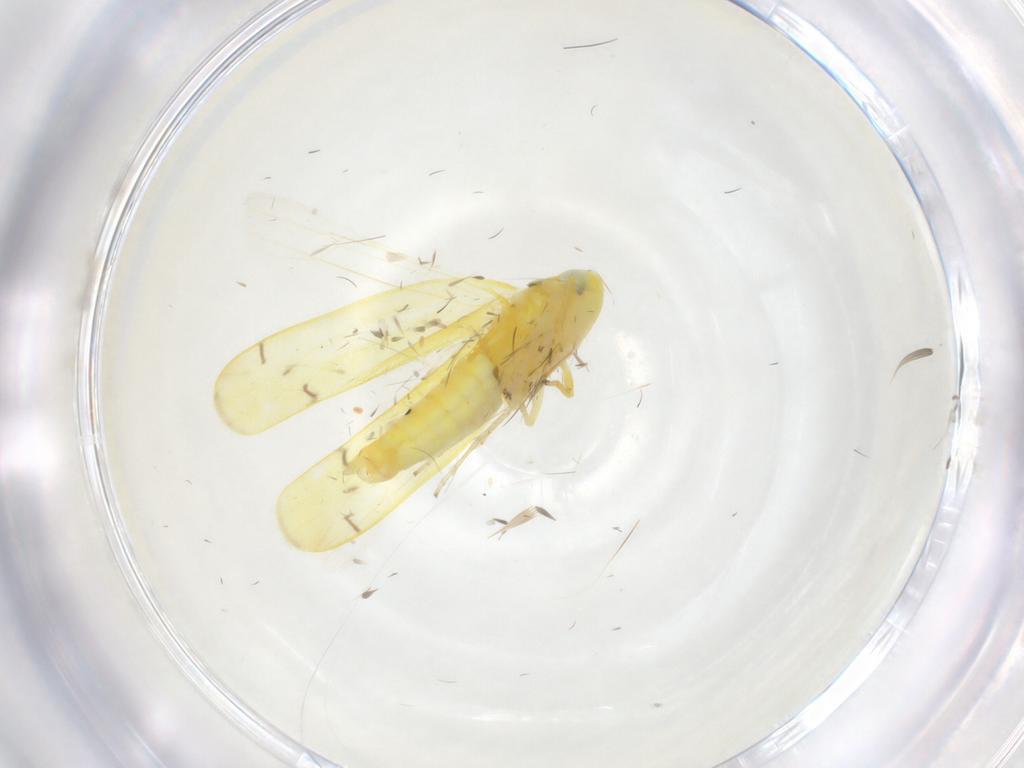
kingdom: Animalia
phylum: Arthropoda
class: Insecta
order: Hemiptera
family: Cicadellidae
